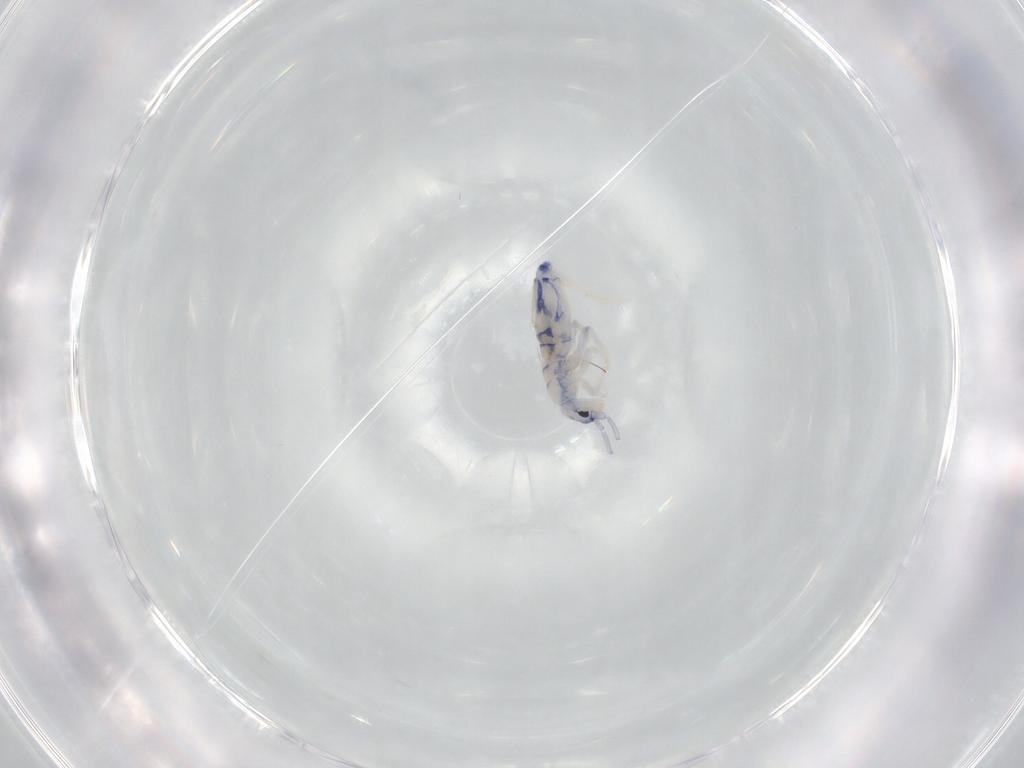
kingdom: Animalia
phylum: Arthropoda
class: Collembola
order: Entomobryomorpha
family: Entomobryidae
